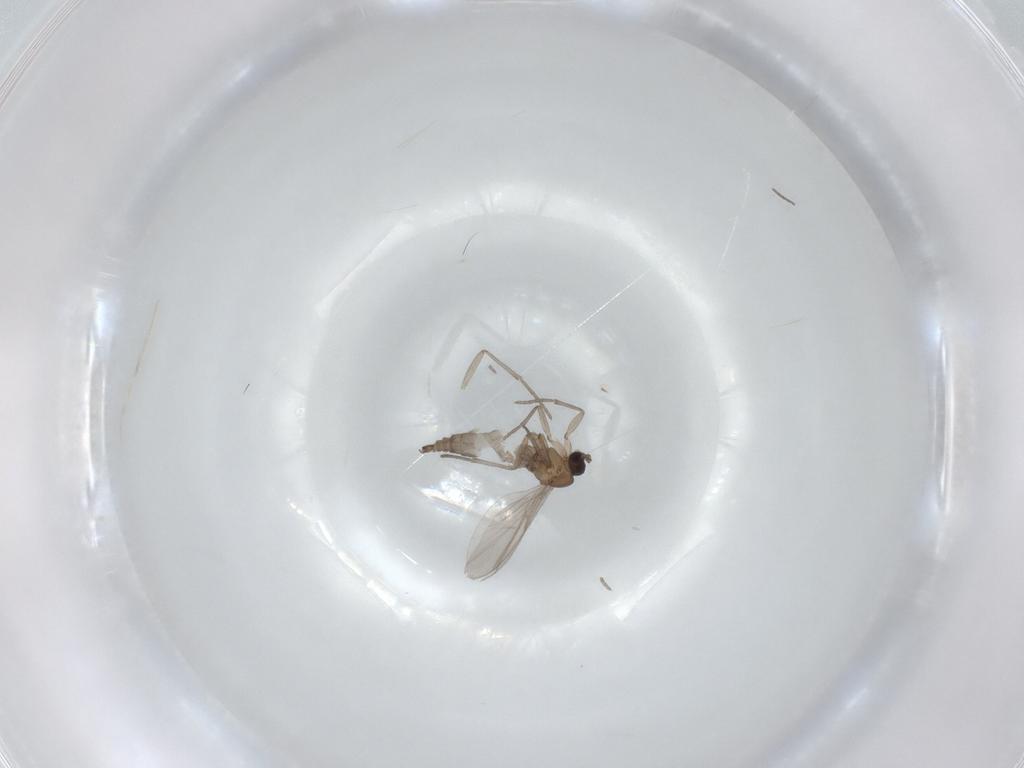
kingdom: Animalia
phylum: Arthropoda
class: Insecta
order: Diptera
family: Sciaridae
